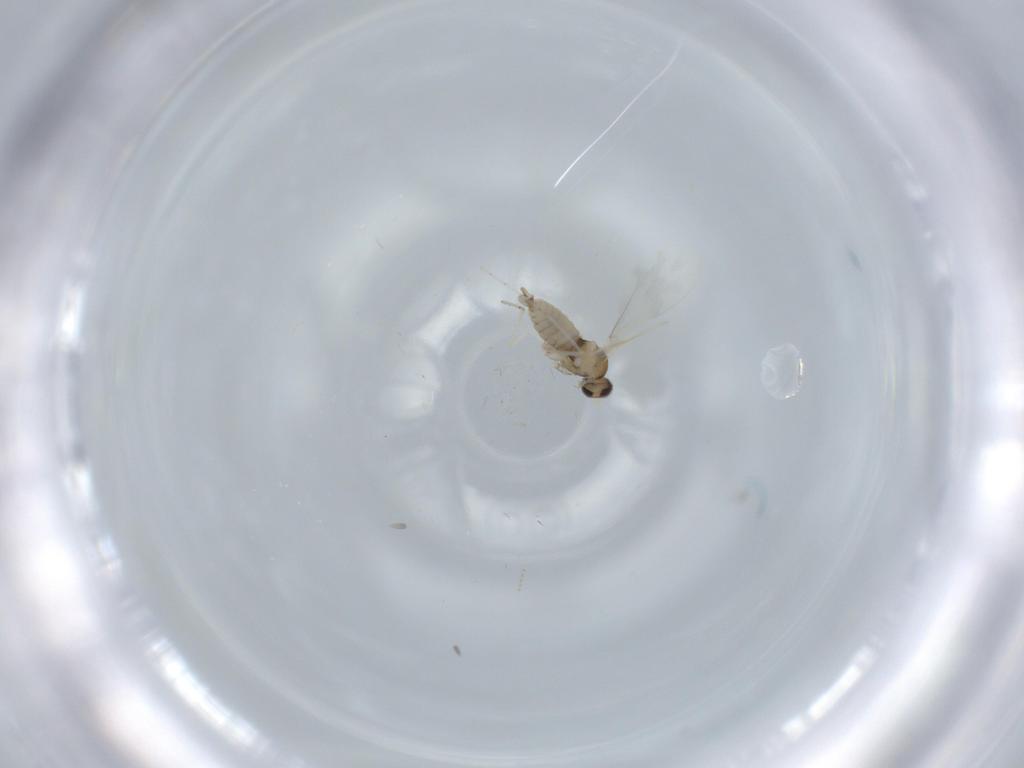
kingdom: Animalia
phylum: Arthropoda
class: Insecta
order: Diptera
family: Cecidomyiidae
